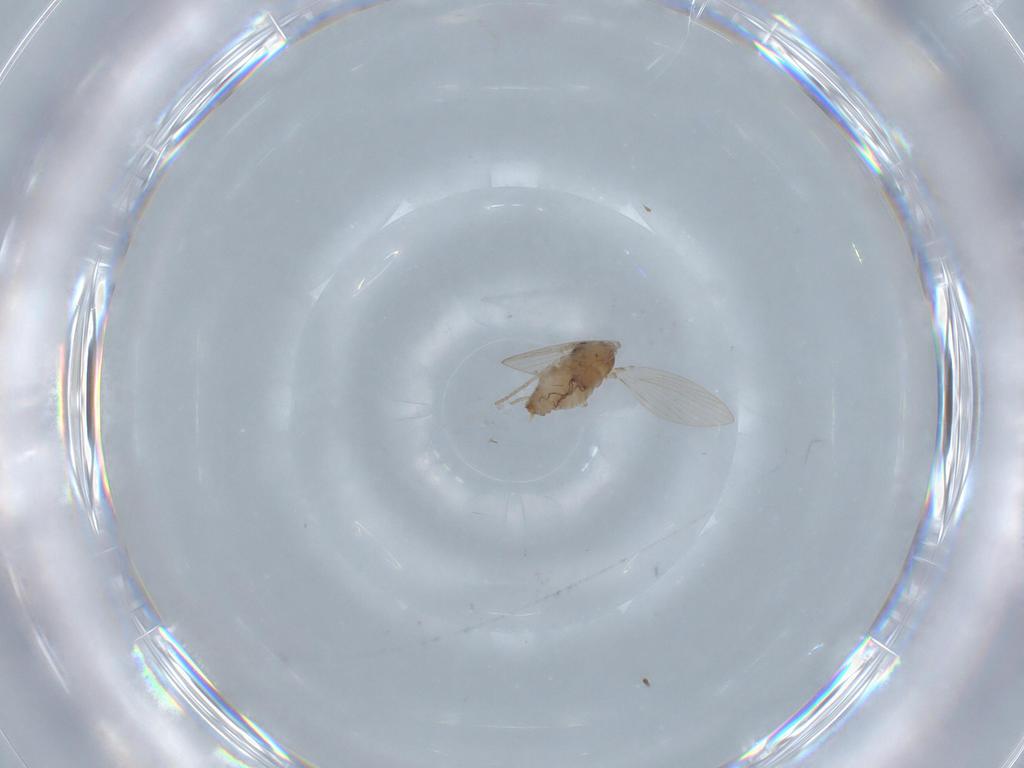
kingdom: Animalia
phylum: Arthropoda
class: Insecta
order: Diptera
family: Psychodidae
